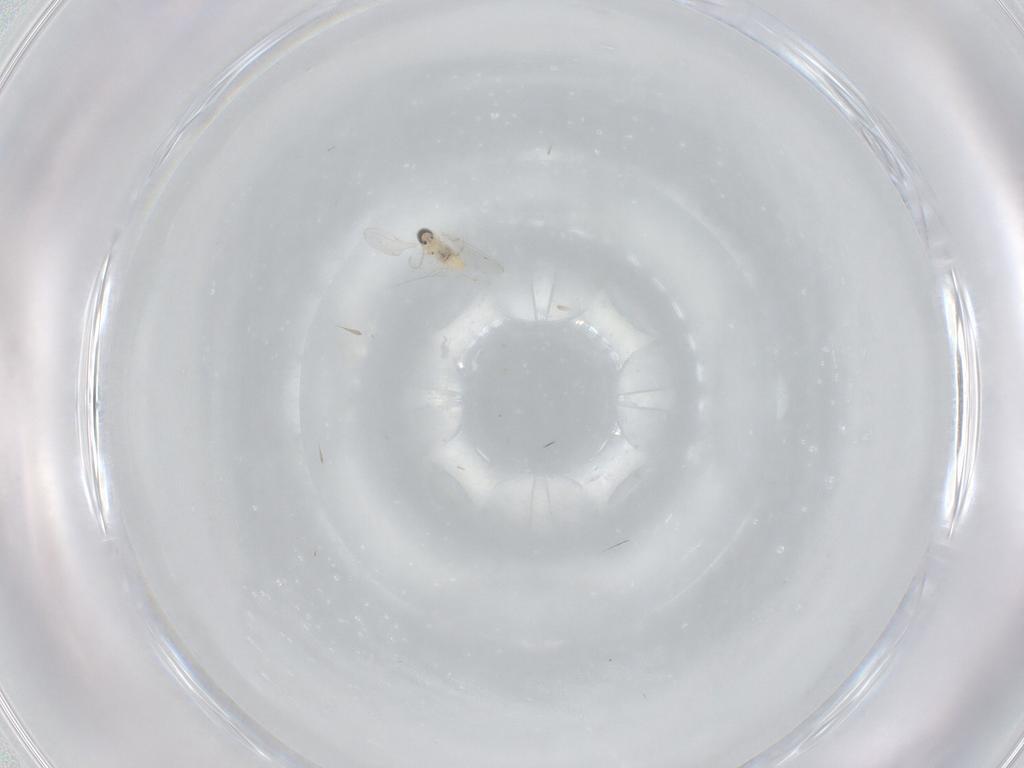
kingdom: Animalia
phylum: Arthropoda
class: Insecta
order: Diptera
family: Cecidomyiidae
